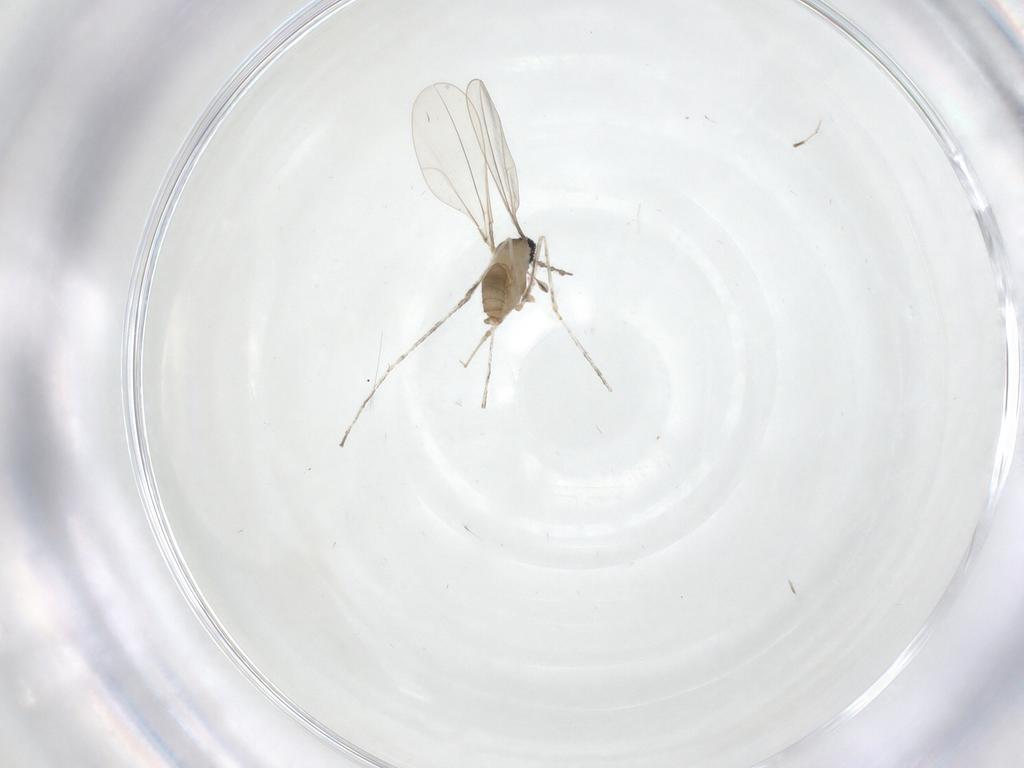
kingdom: Animalia
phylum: Arthropoda
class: Insecta
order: Diptera
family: Cecidomyiidae
